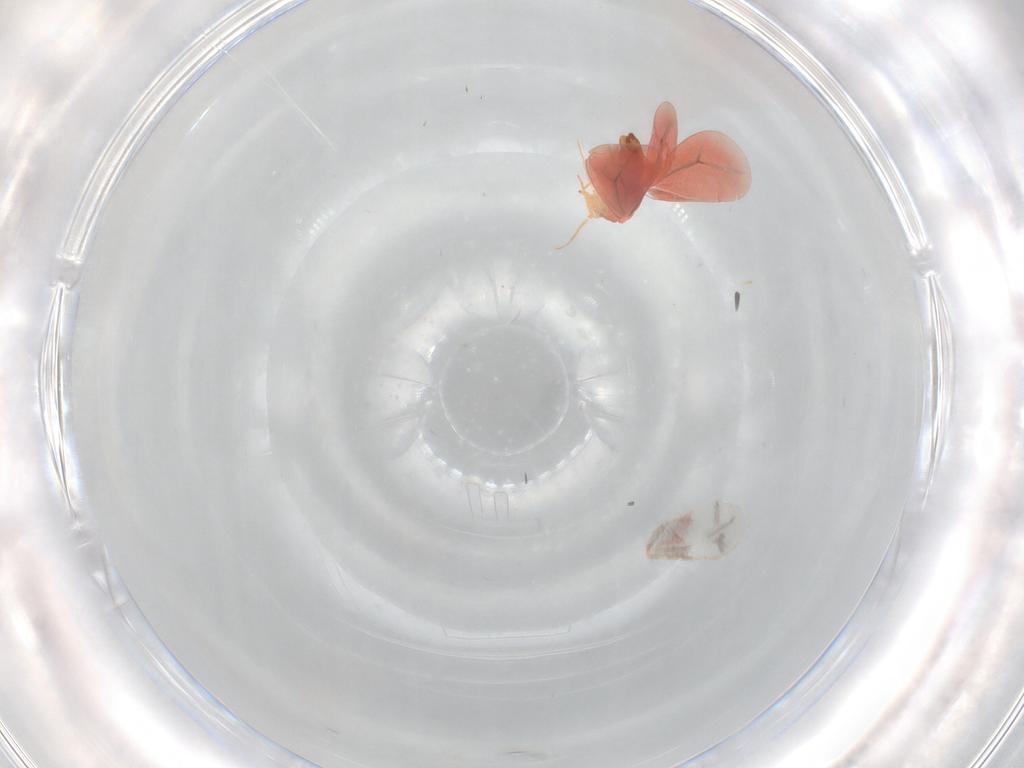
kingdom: Animalia
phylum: Arthropoda
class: Insecta
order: Hemiptera
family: Aleyrodidae
